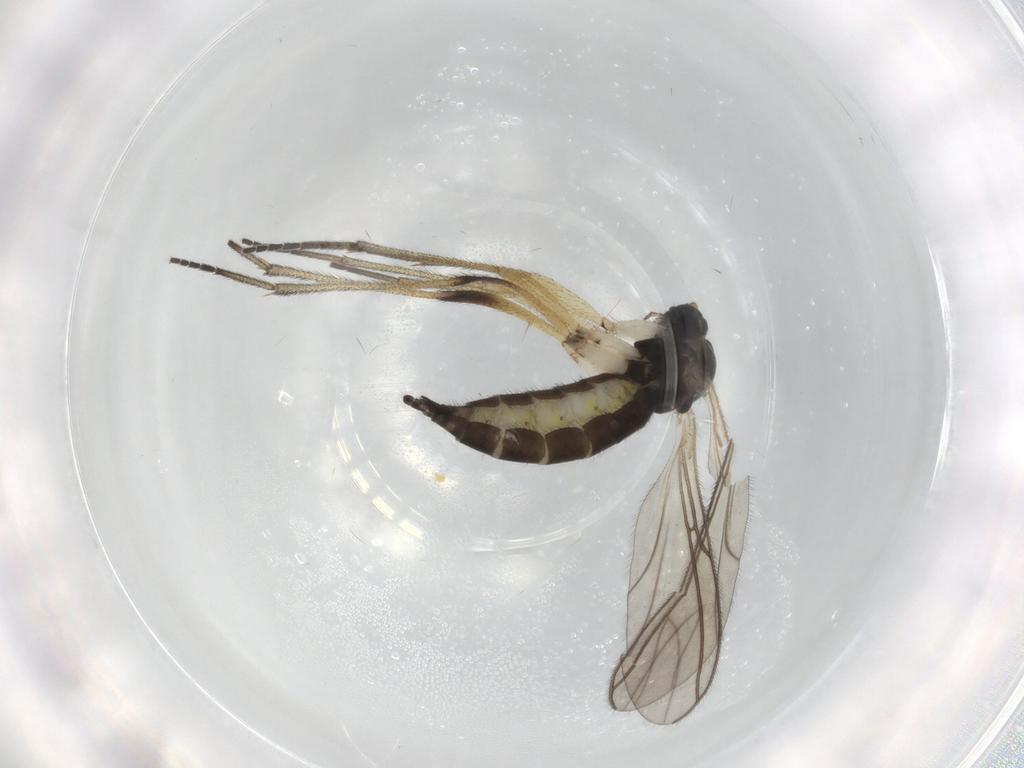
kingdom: Animalia
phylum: Arthropoda
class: Insecta
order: Diptera
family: Sciaridae
